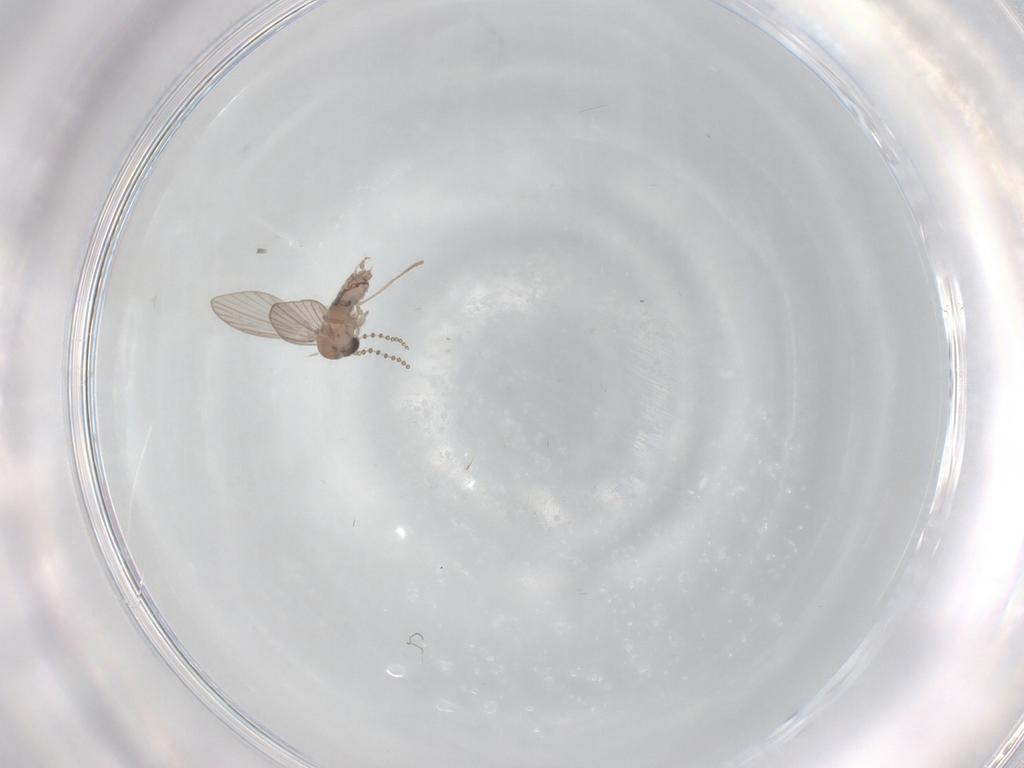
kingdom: Animalia
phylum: Arthropoda
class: Insecta
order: Diptera
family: Psychodidae
